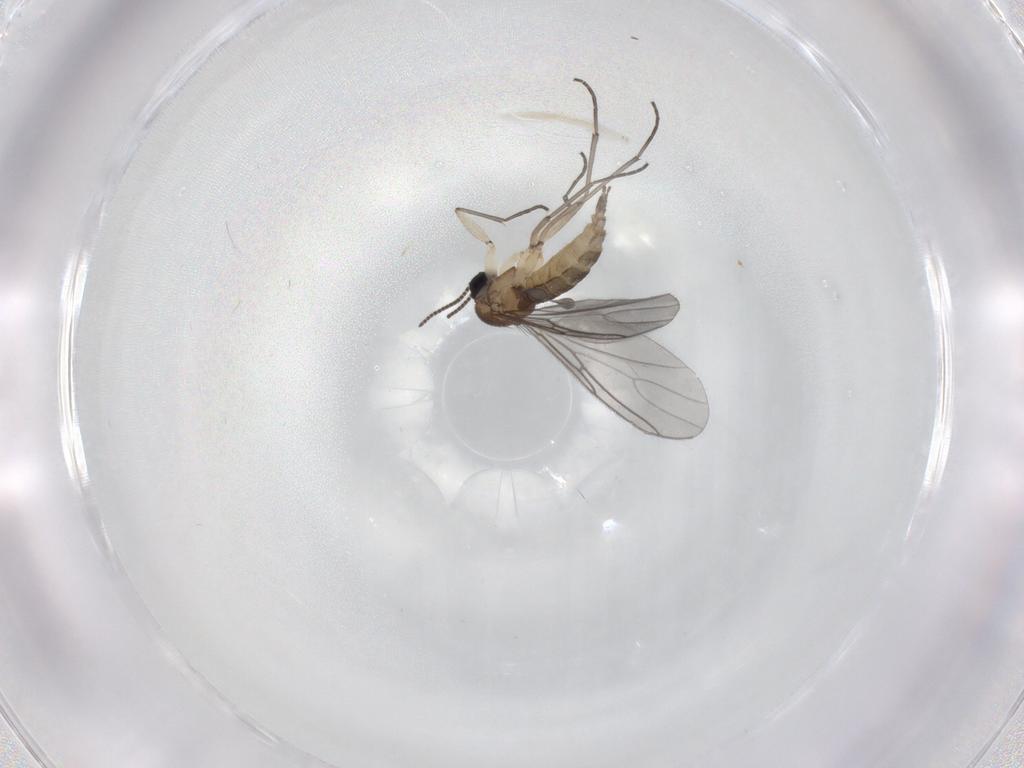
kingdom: Animalia
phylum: Arthropoda
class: Insecta
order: Diptera
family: Sciaridae
